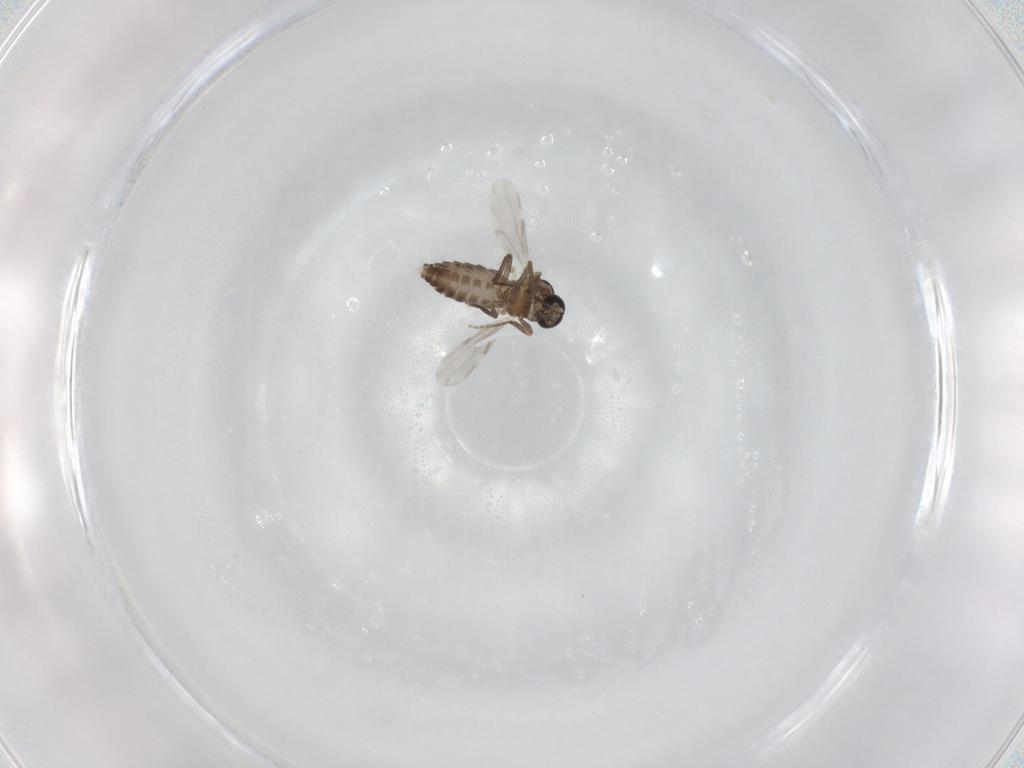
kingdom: Animalia
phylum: Arthropoda
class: Insecta
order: Diptera
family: Ceratopogonidae
